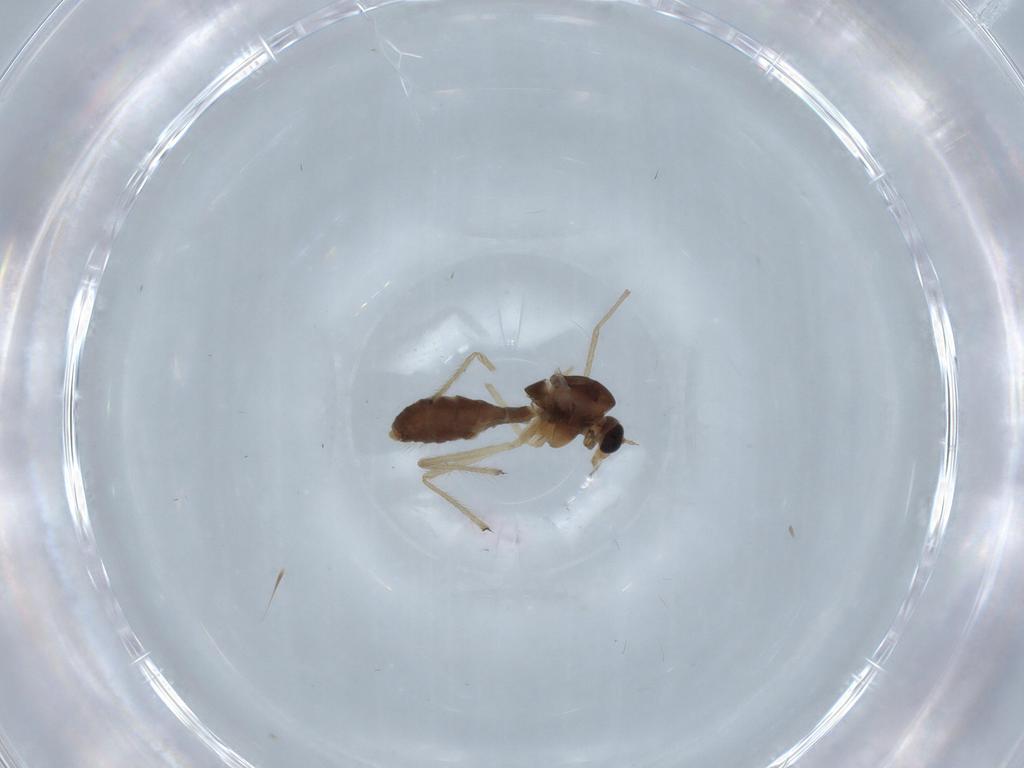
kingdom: Animalia
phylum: Arthropoda
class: Insecta
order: Diptera
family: Chironomidae
